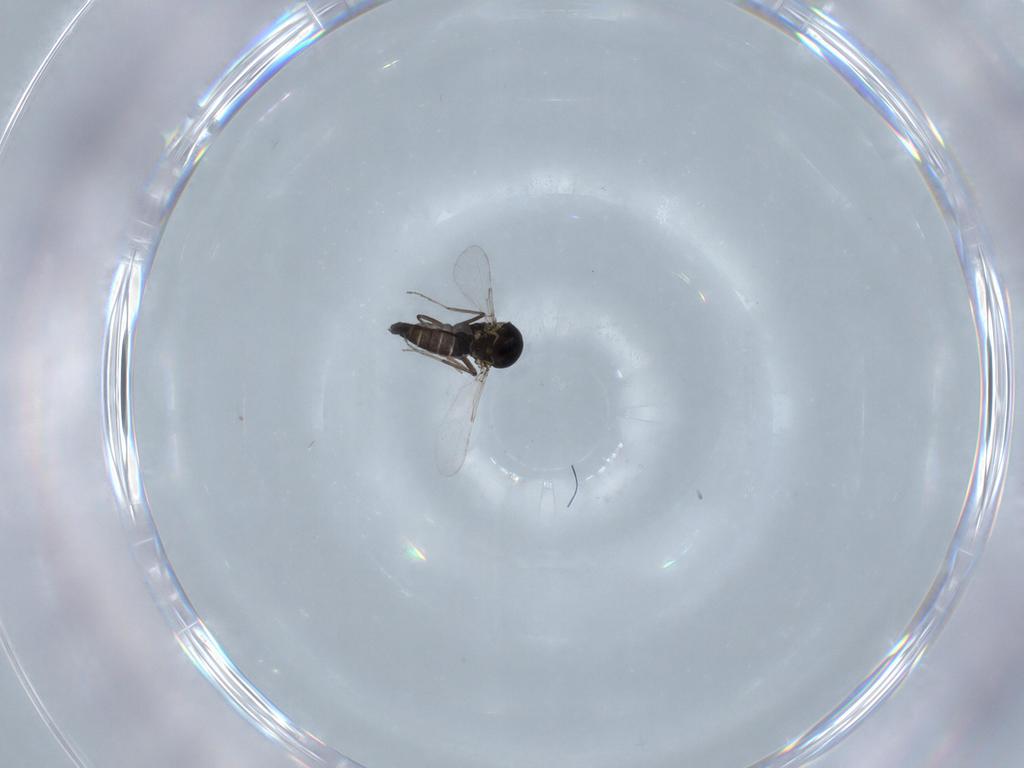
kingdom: Animalia
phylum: Arthropoda
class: Insecta
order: Diptera
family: Ceratopogonidae
